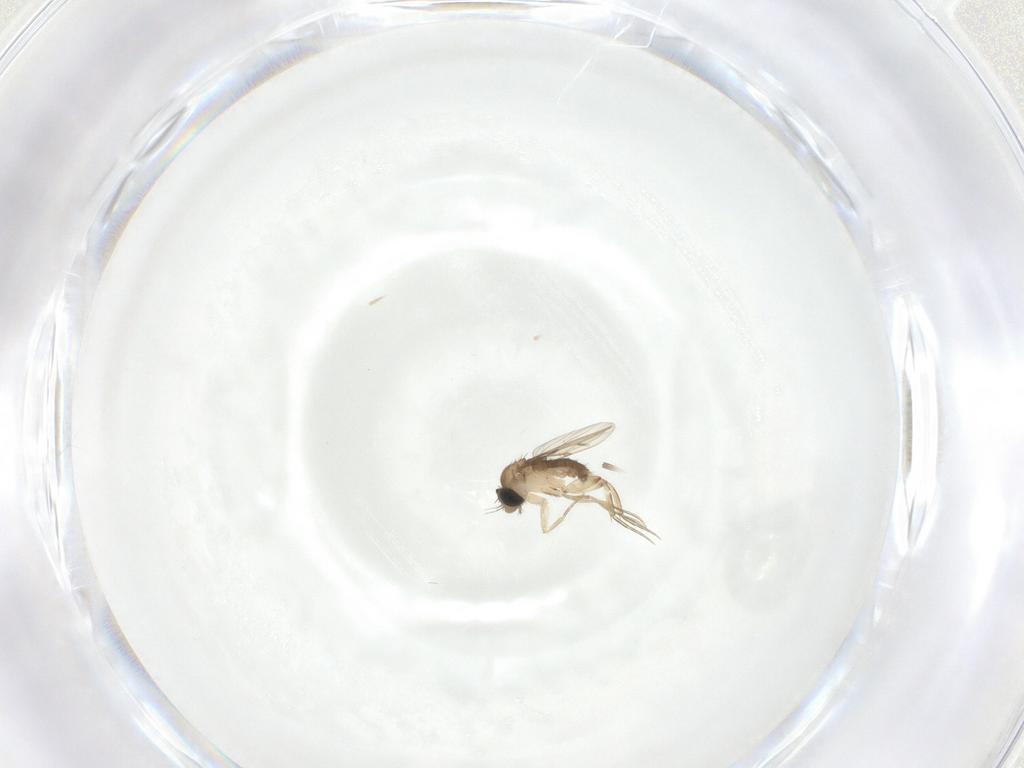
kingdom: Animalia
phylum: Arthropoda
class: Insecta
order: Diptera
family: Phoridae
